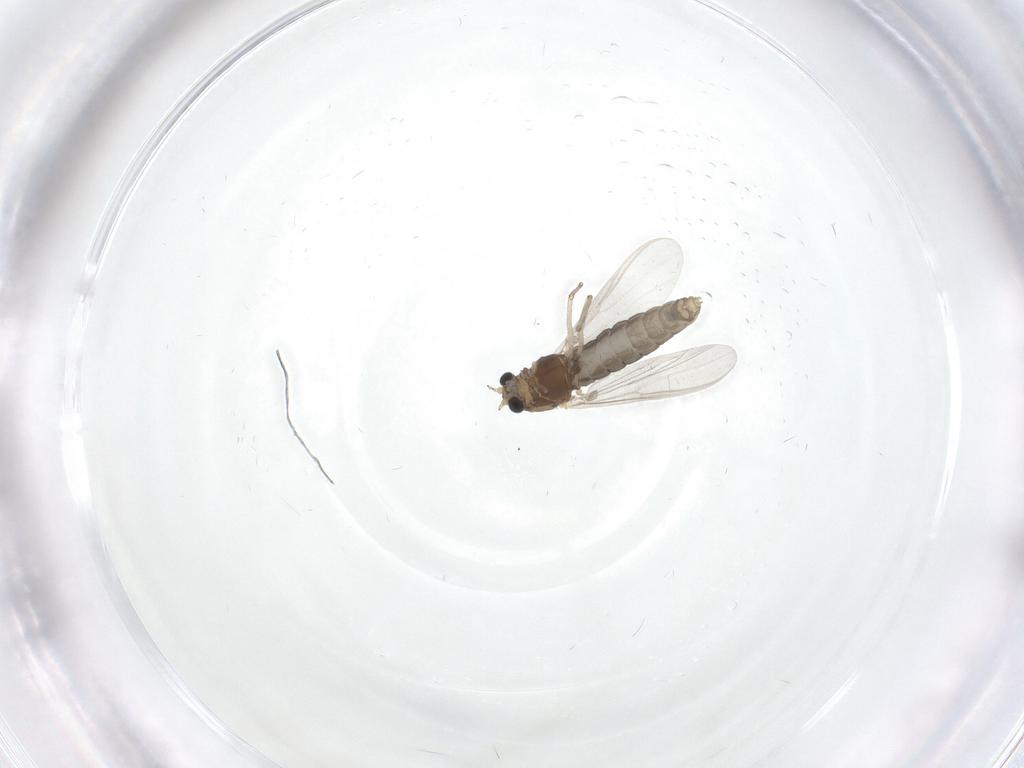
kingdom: Animalia
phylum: Arthropoda
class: Insecta
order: Diptera
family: Chironomidae
